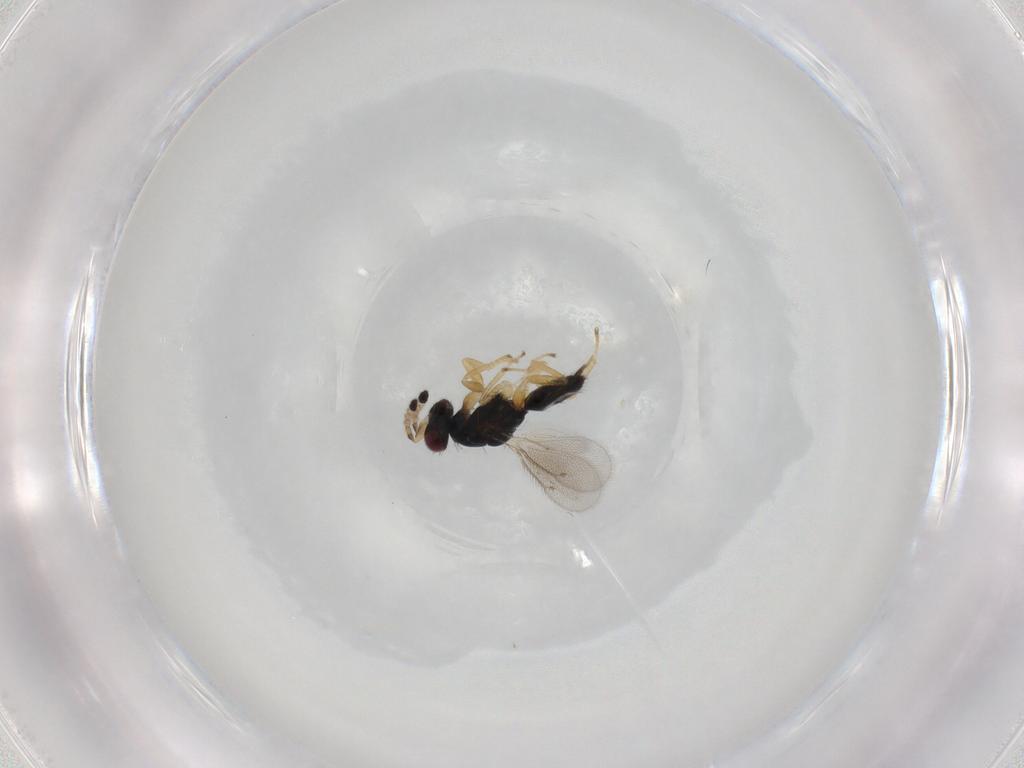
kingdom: Animalia
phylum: Arthropoda
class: Insecta
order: Hymenoptera
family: Eulophidae
